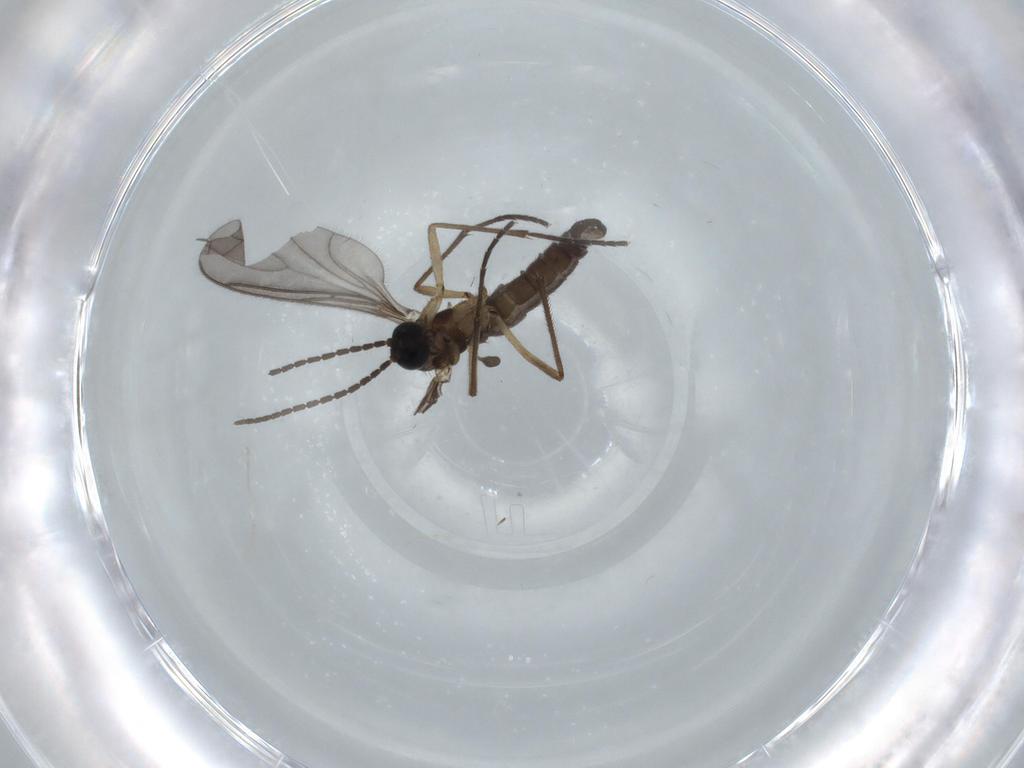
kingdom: Animalia
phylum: Arthropoda
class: Insecta
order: Diptera
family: Sciaridae
